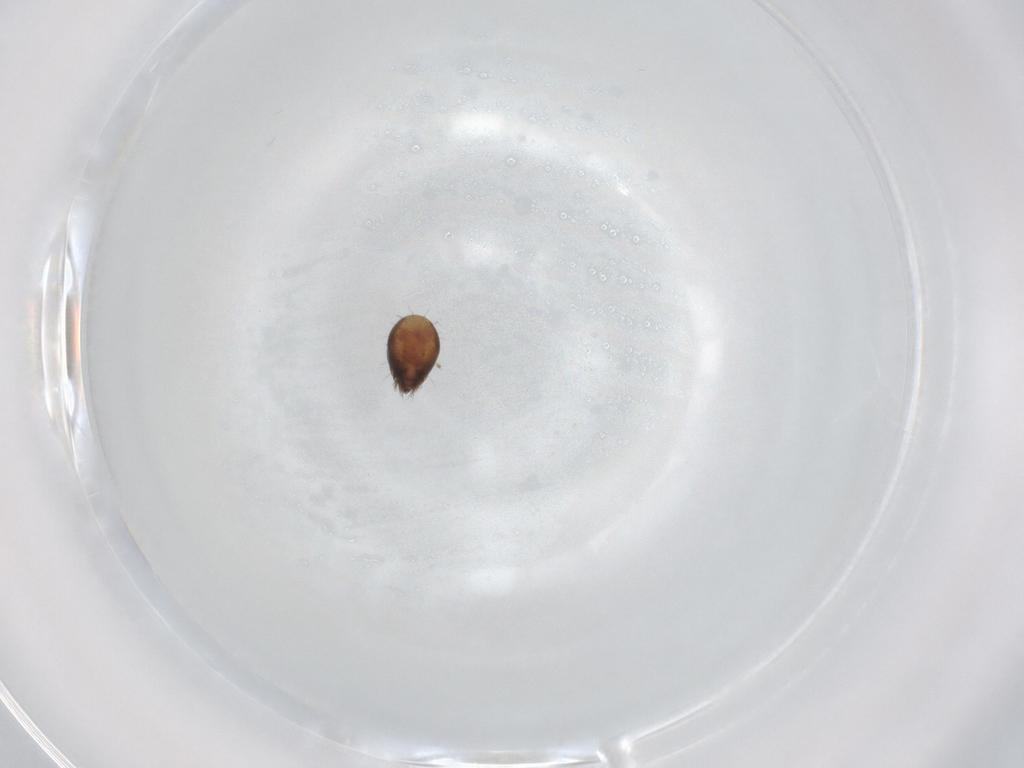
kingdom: Animalia
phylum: Arthropoda
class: Arachnida
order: Sarcoptiformes
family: Humerobatidae
